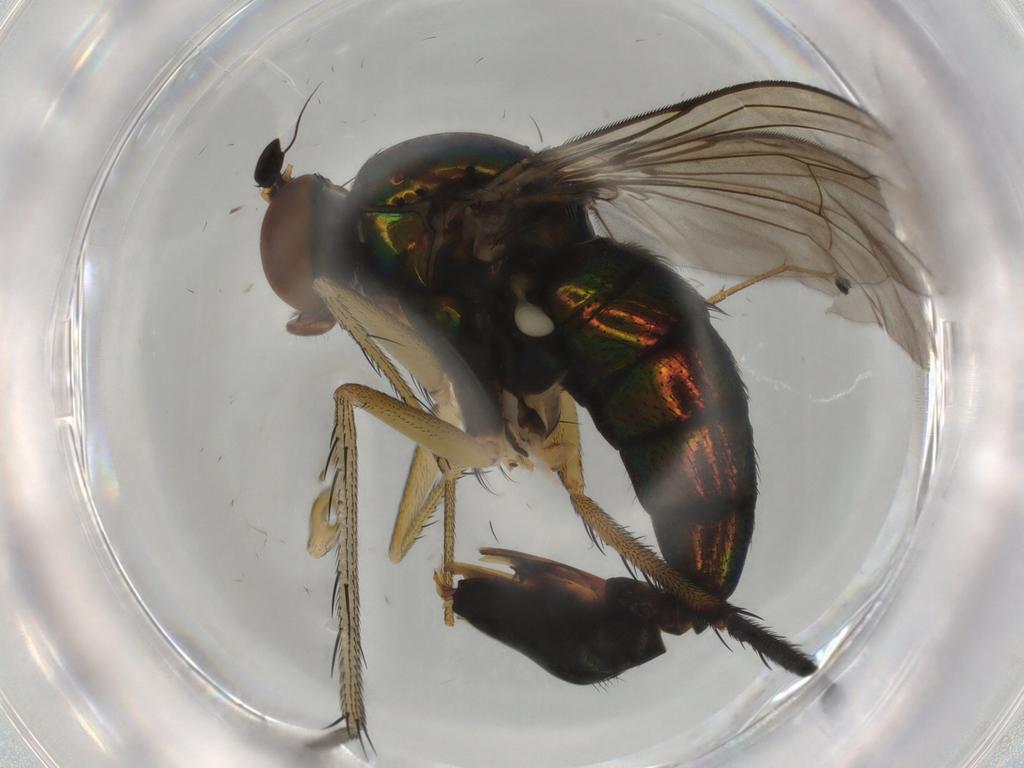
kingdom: Animalia
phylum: Arthropoda
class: Insecta
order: Diptera
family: Dolichopodidae
